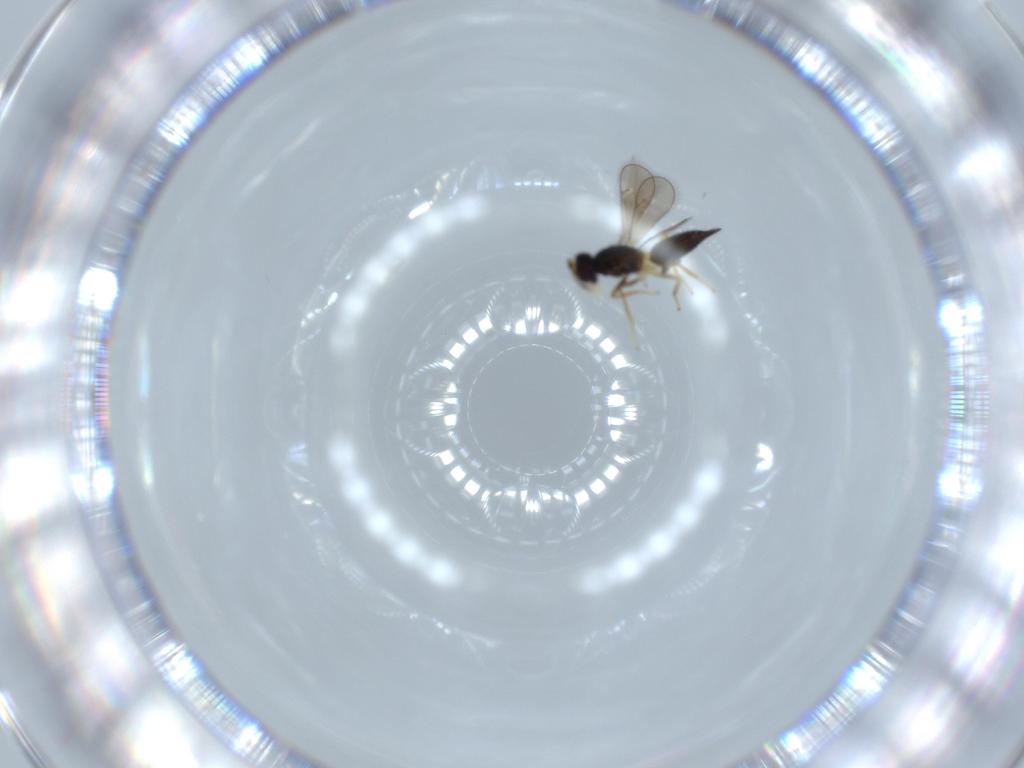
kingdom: Animalia
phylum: Arthropoda
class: Insecta
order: Hymenoptera
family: Eulophidae
